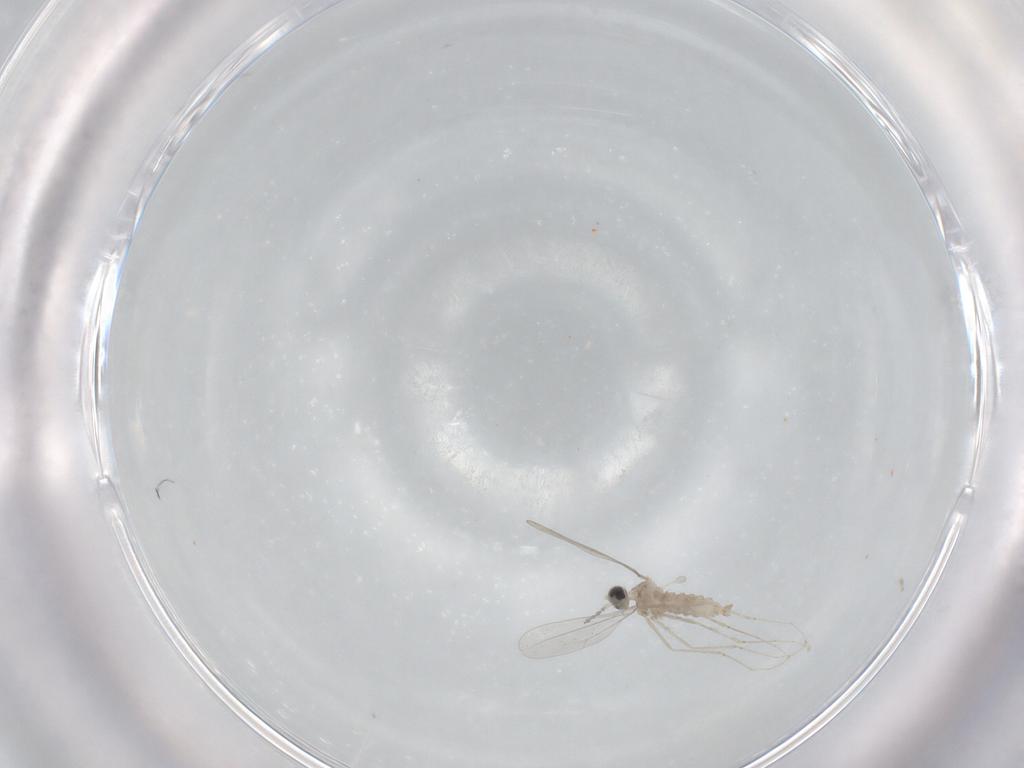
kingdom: Animalia
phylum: Arthropoda
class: Insecta
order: Diptera
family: Cecidomyiidae
